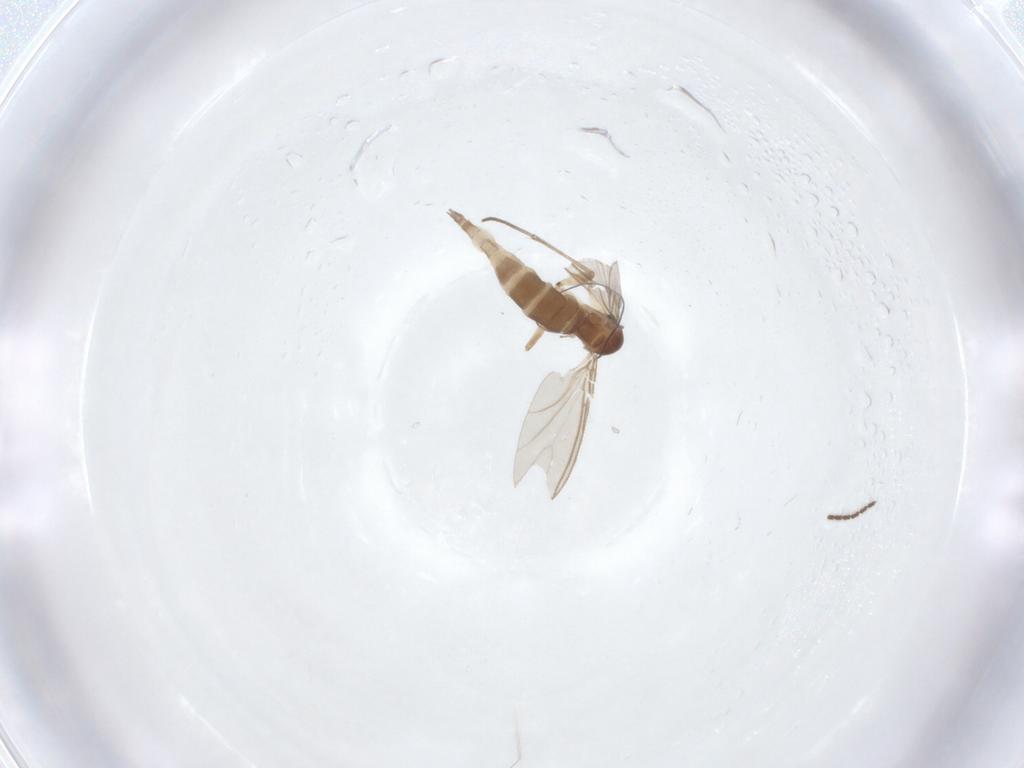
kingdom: Animalia
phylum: Arthropoda
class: Insecta
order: Diptera
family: Sciaridae
